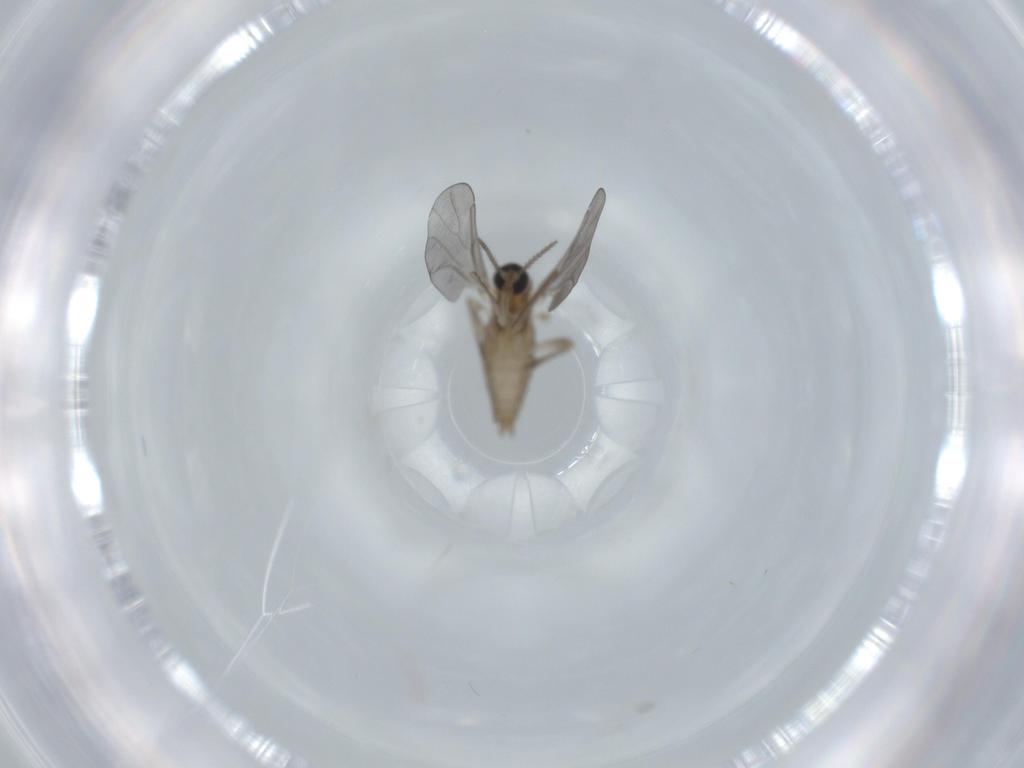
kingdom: Animalia
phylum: Arthropoda
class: Insecta
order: Diptera
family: Cecidomyiidae
